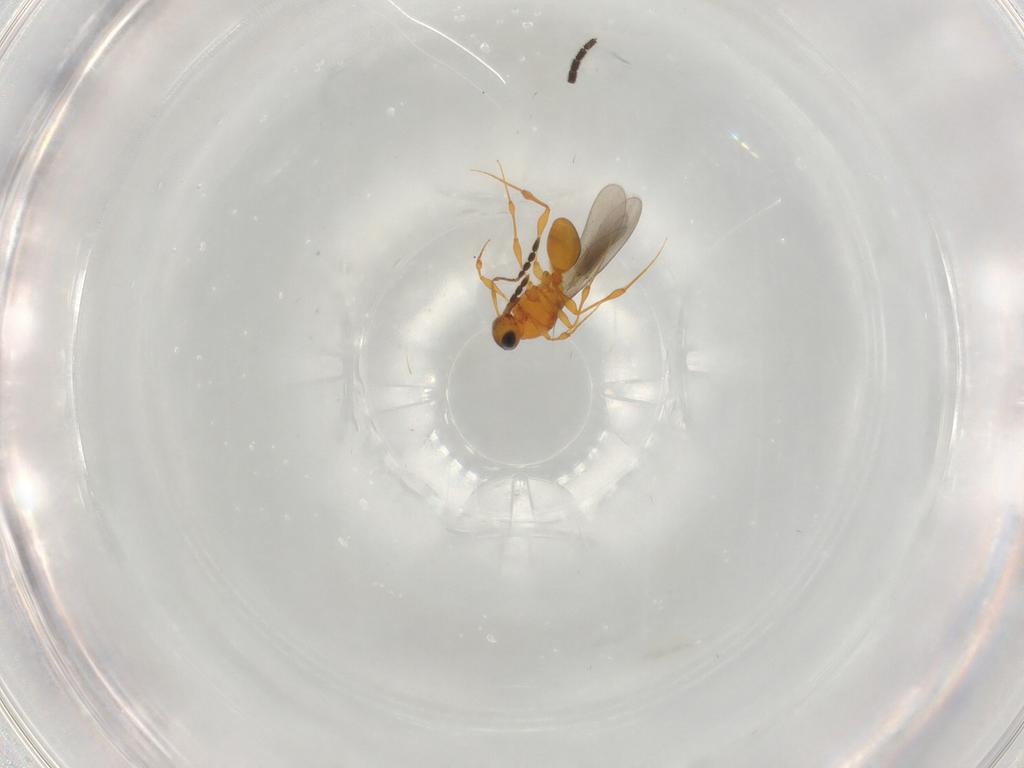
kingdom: Animalia
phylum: Arthropoda
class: Insecta
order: Hymenoptera
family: Platygastridae
